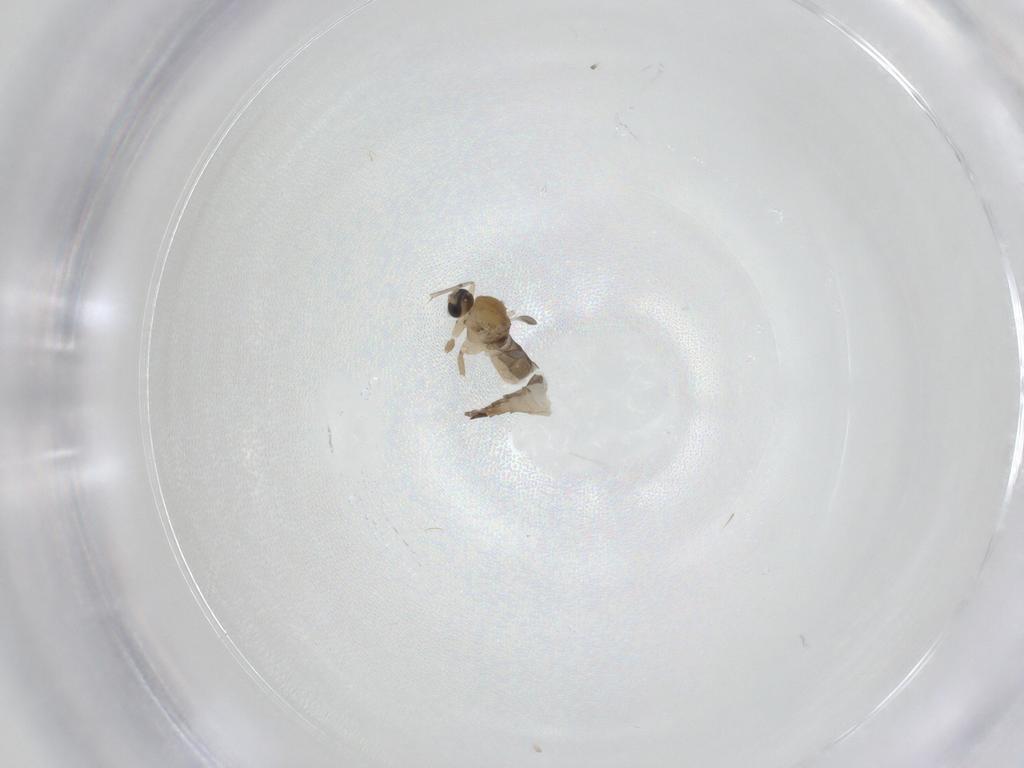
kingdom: Animalia
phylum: Arthropoda
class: Insecta
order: Diptera
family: Sciaridae
